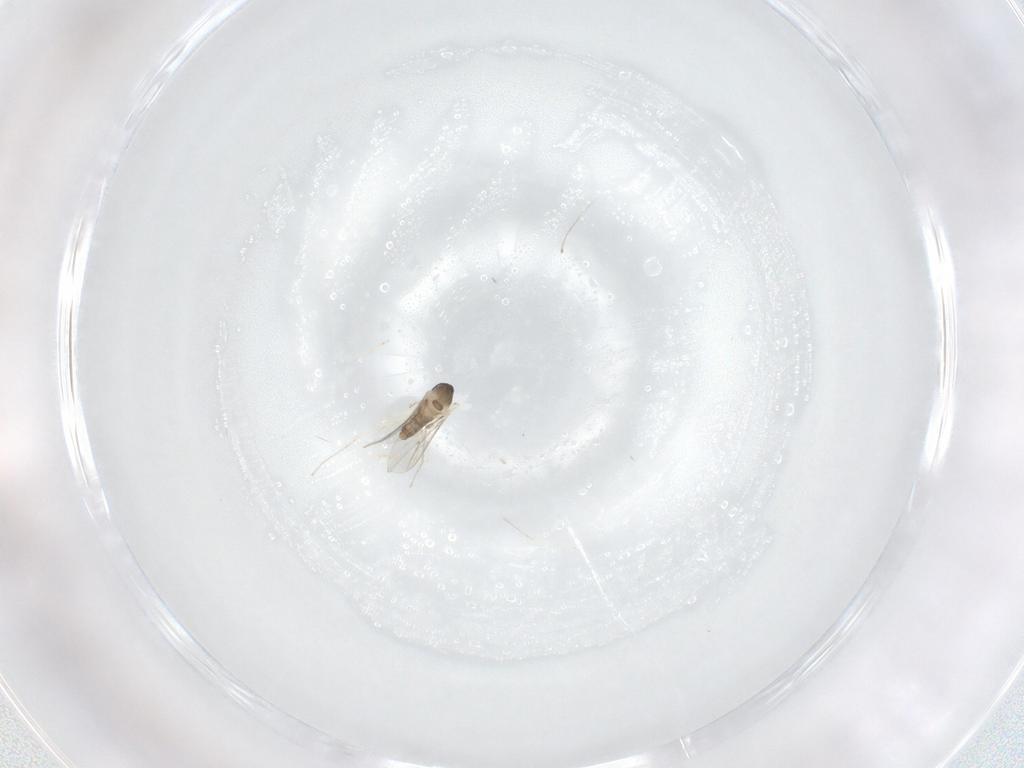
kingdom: Animalia
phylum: Arthropoda
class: Insecta
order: Diptera
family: Cecidomyiidae
